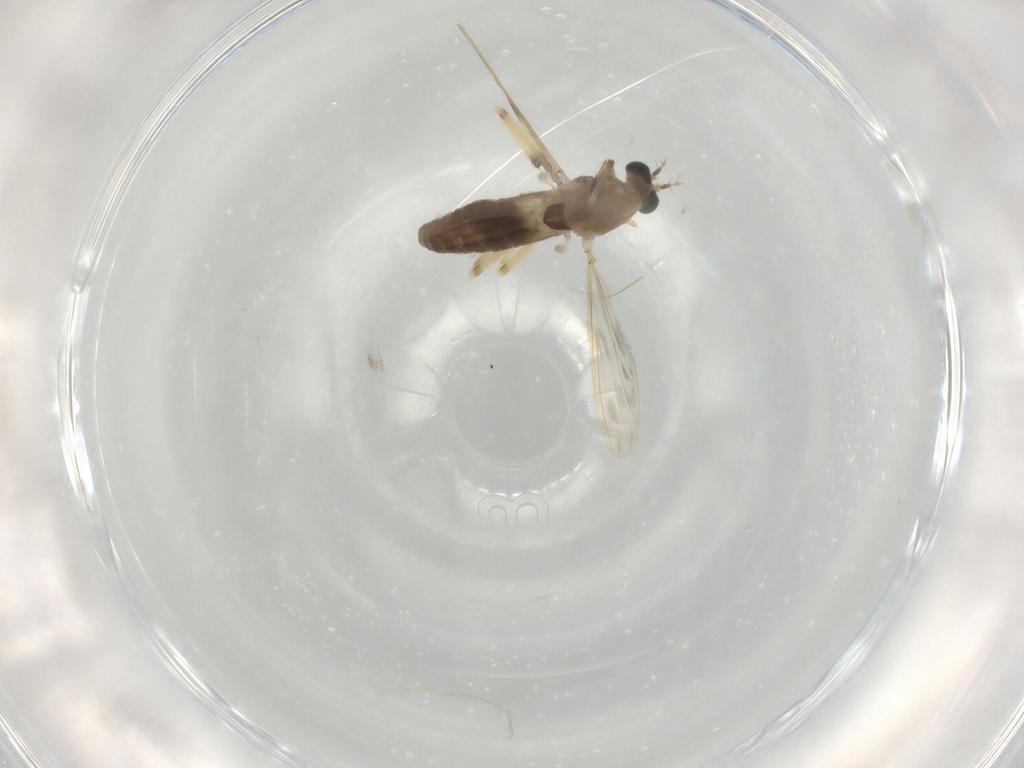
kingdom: Animalia
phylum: Arthropoda
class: Insecta
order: Diptera
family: Chironomidae
